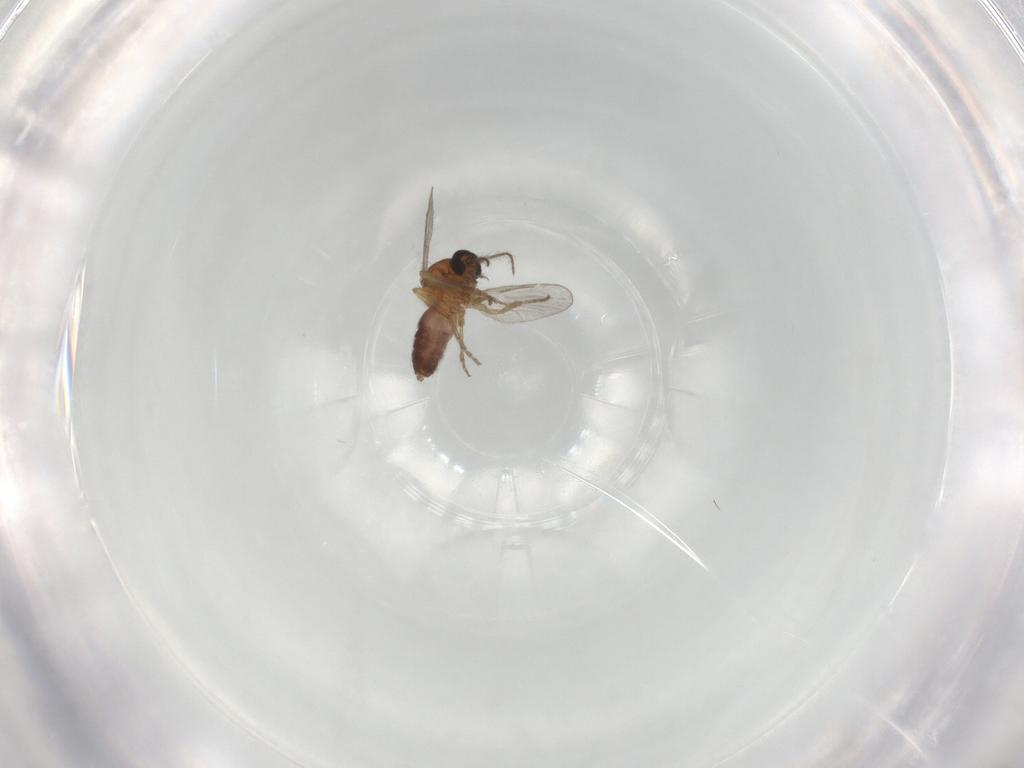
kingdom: Animalia
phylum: Arthropoda
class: Insecta
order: Diptera
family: Ceratopogonidae
